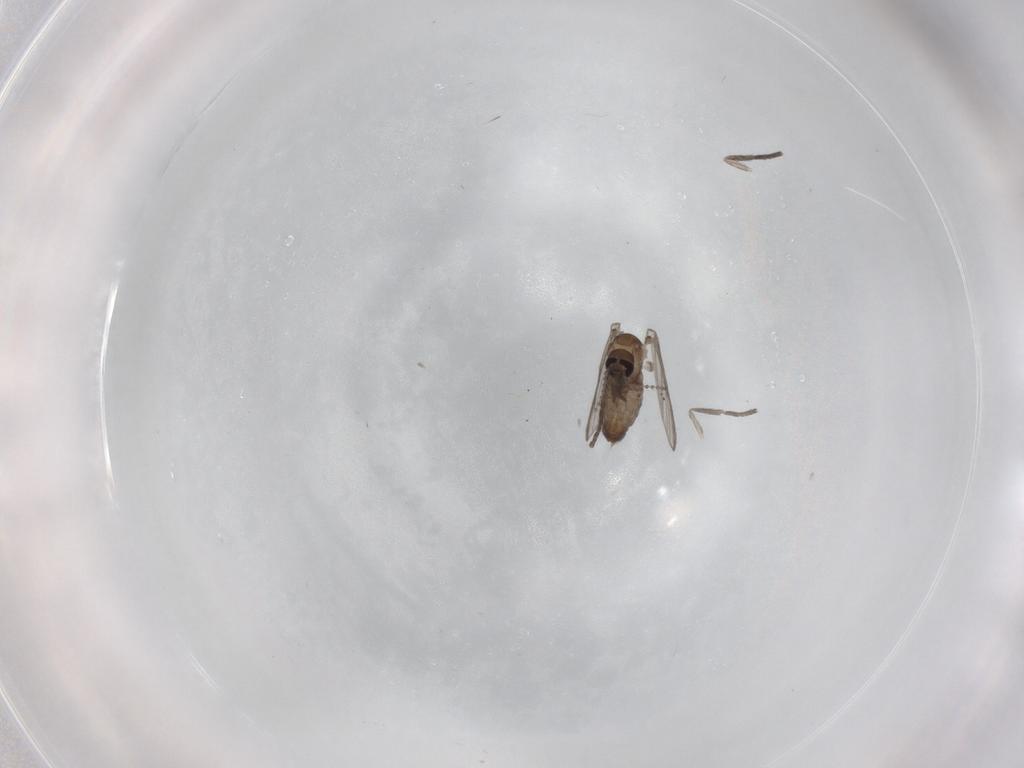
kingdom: Animalia
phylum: Arthropoda
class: Insecta
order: Diptera
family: Psychodidae
